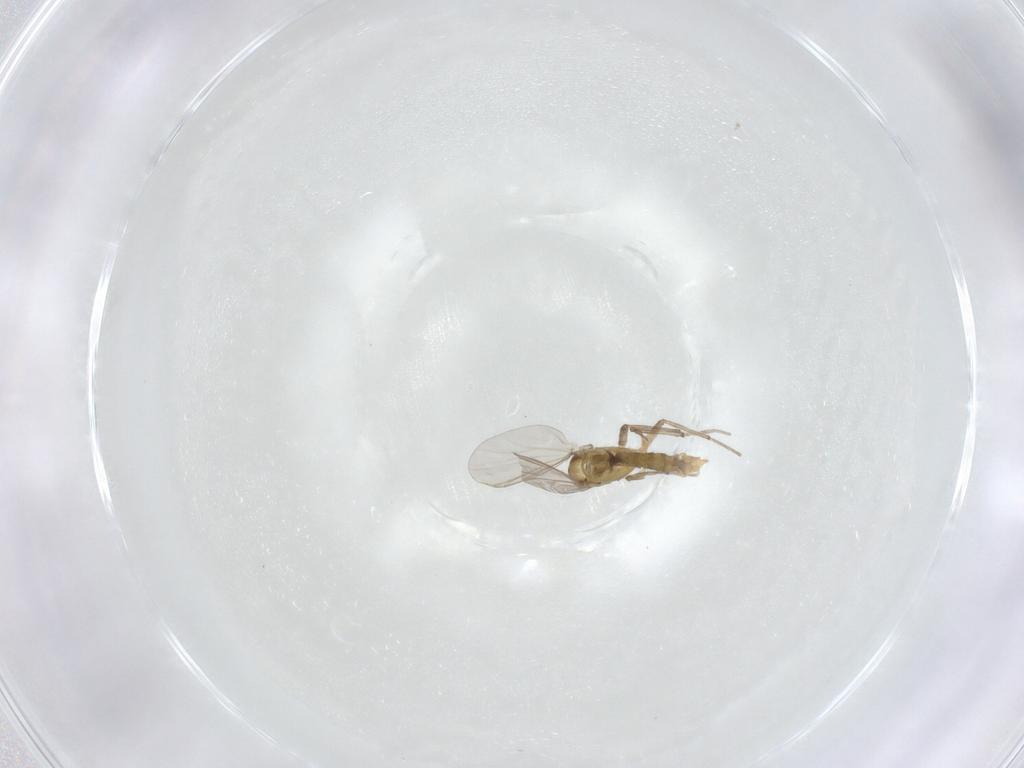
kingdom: Animalia
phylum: Arthropoda
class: Insecta
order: Diptera
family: Chironomidae
